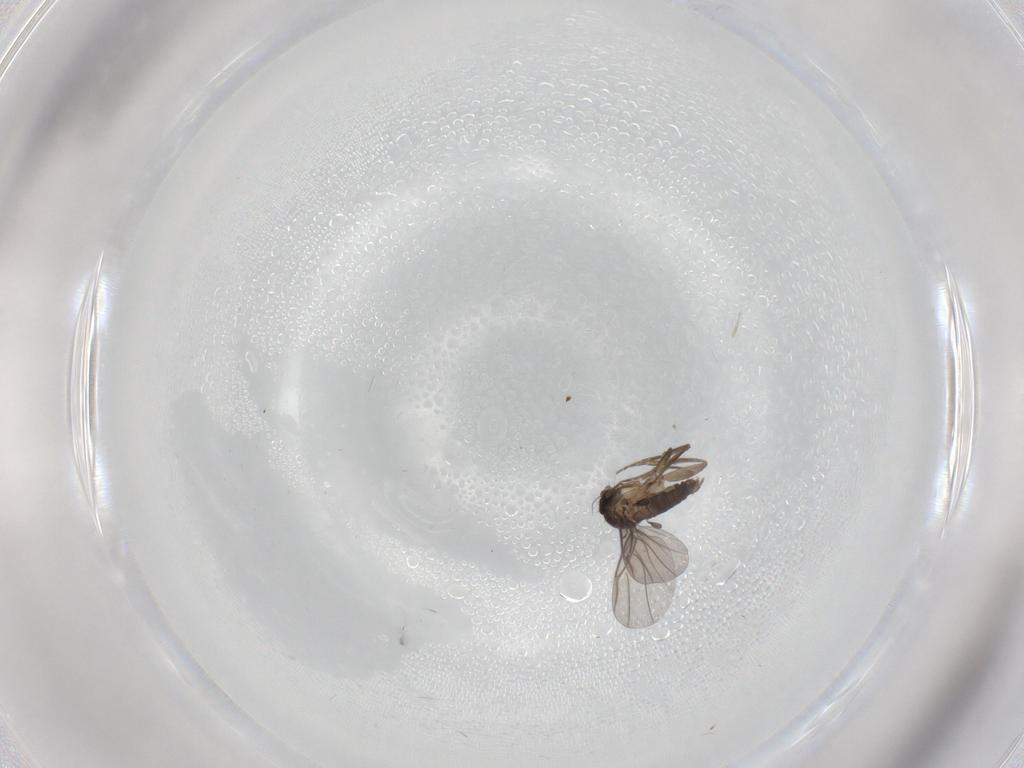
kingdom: Animalia
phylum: Arthropoda
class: Insecta
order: Diptera
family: Phoridae
